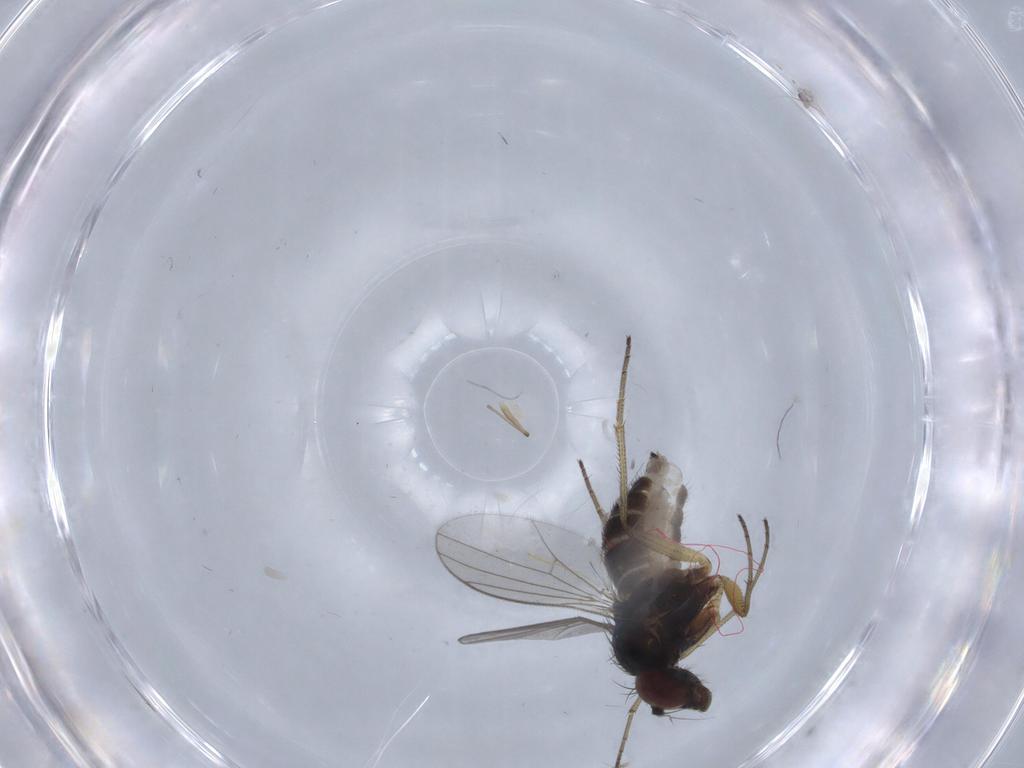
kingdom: Animalia
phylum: Arthropoda
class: Insecta
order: Diptera
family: Dolichopodidae
